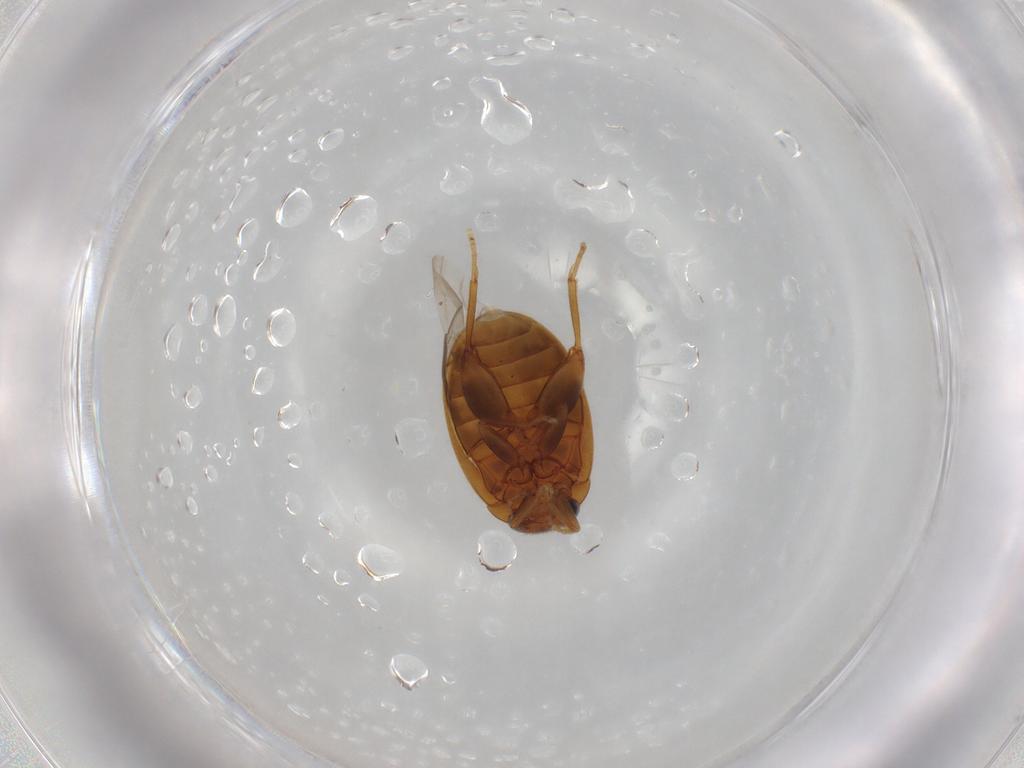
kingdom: Animalia
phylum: Arthropoda
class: Insecta
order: Coleoptera
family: Scirtidae
